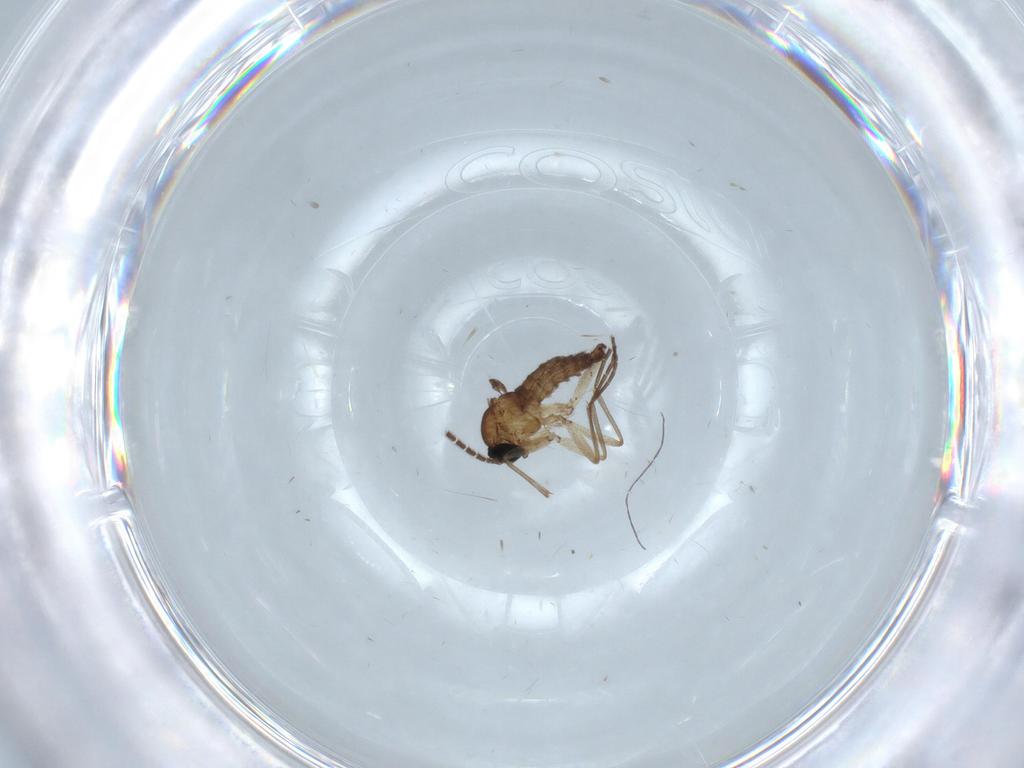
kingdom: Animalia
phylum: Arthropoda
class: Insecta
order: Diptera
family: Sciaridae
